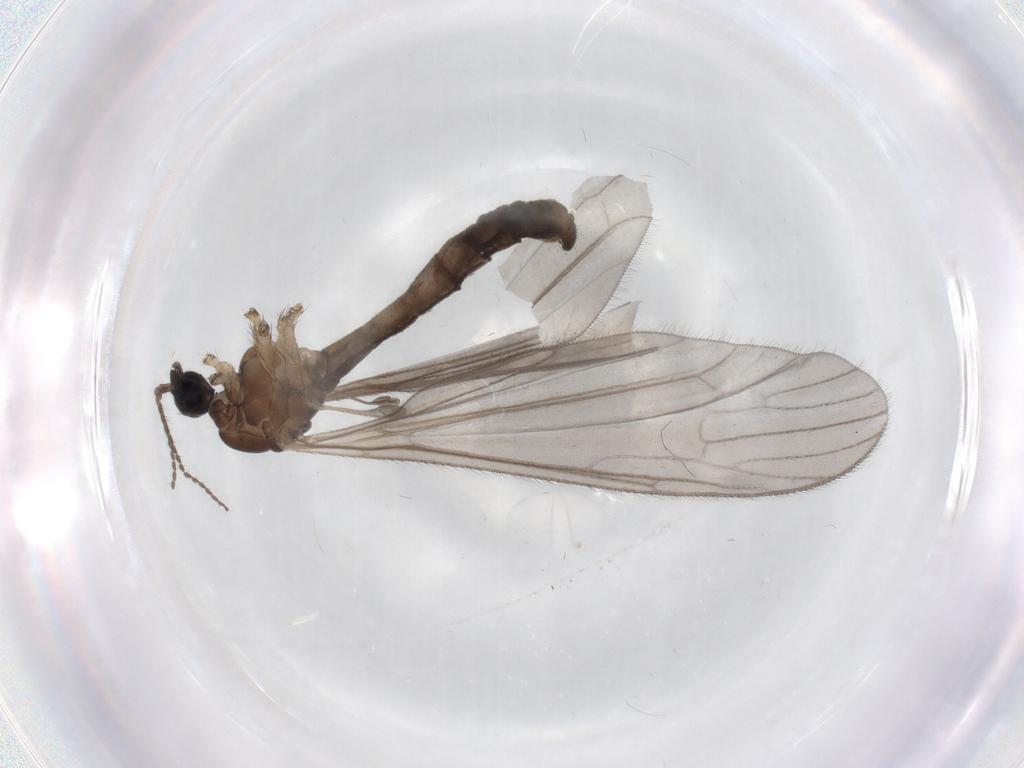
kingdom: Animalia
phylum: Arthropoda
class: Insecta
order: Diptera
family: Limoniidae
